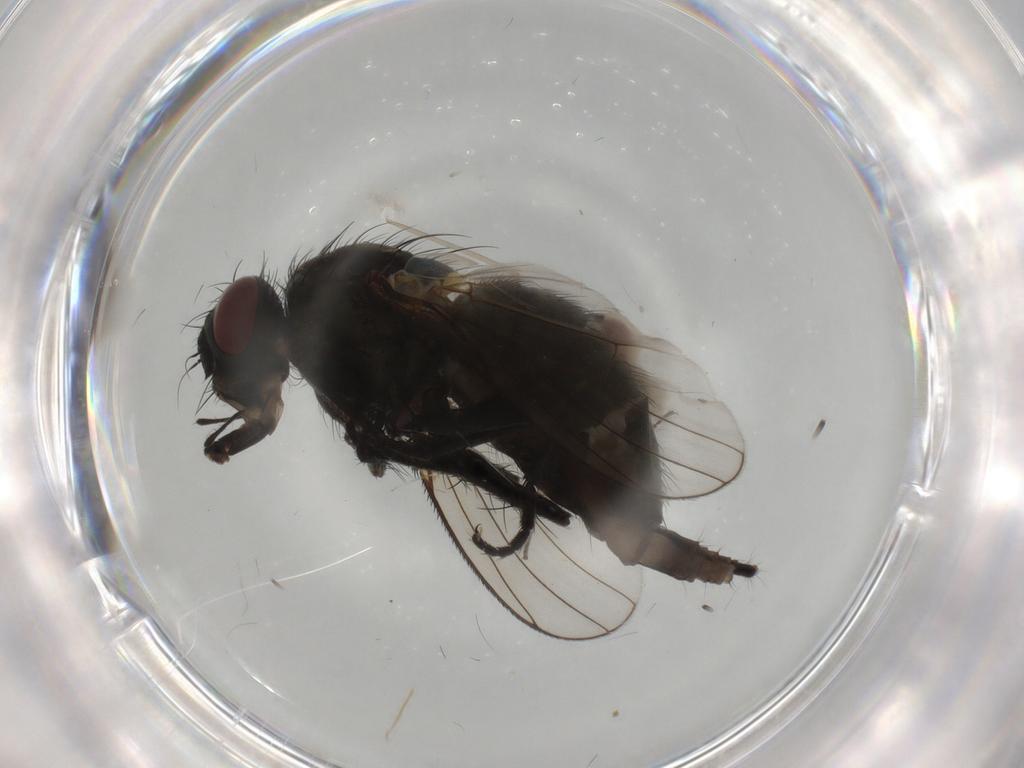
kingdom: Animalia
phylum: Arthropoda
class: Insecta
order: Diptera
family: Muscidae
